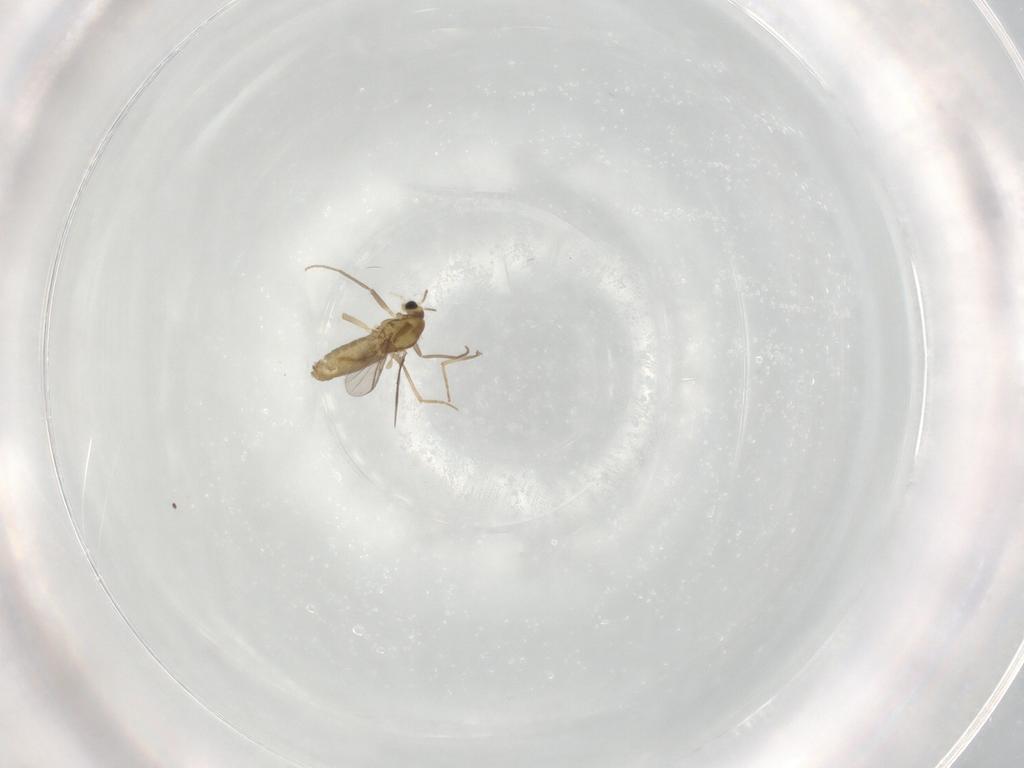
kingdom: Animalia
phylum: Arthropoda
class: Insecta
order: Diptera
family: Chironomidae
